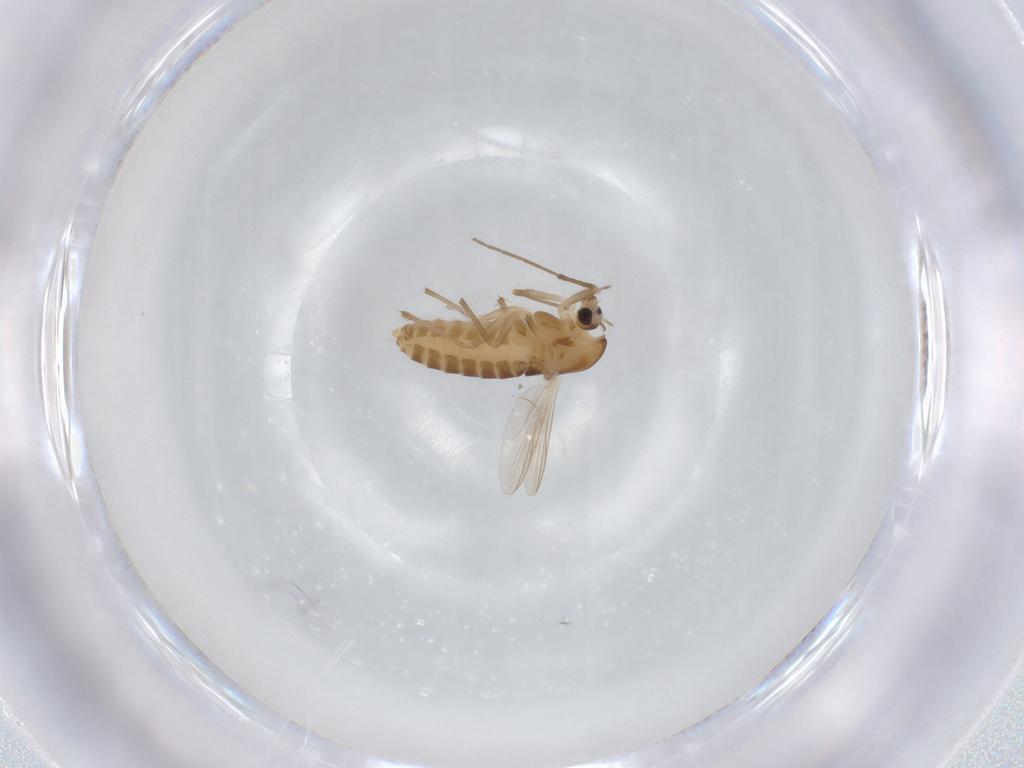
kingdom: Animalia
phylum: Arthropoda
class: Insecta
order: Diptera
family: Chironomidae
